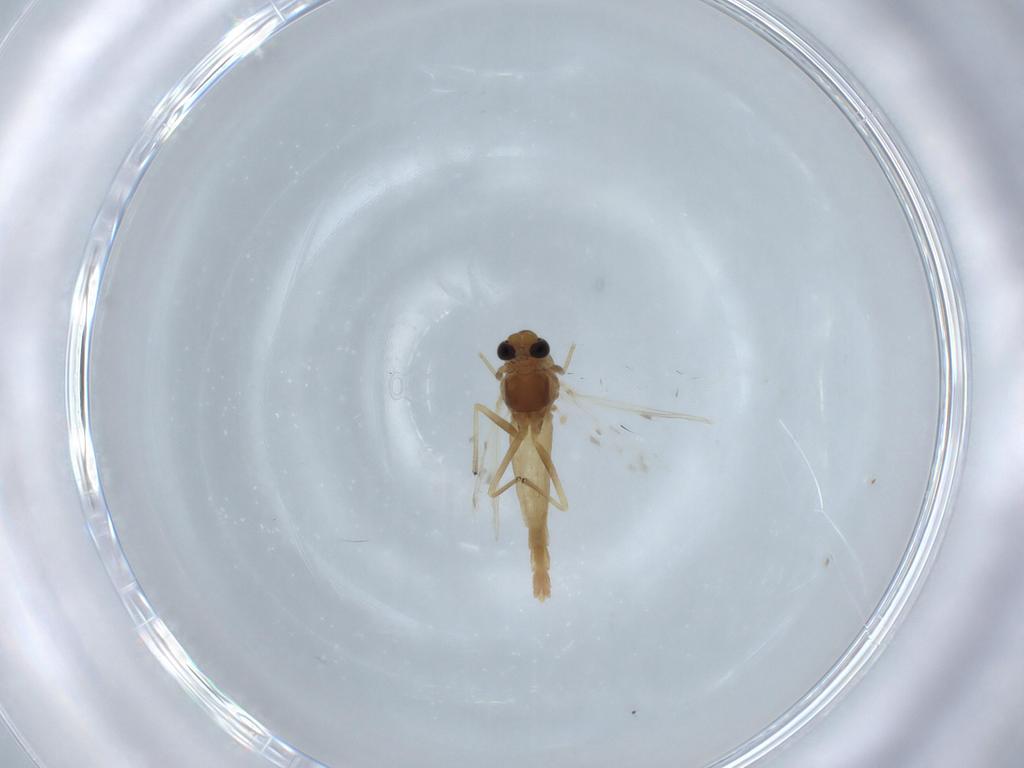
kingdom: Animalia
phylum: Arthropoda
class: Insecta
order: Diptera
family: Chironomidae
